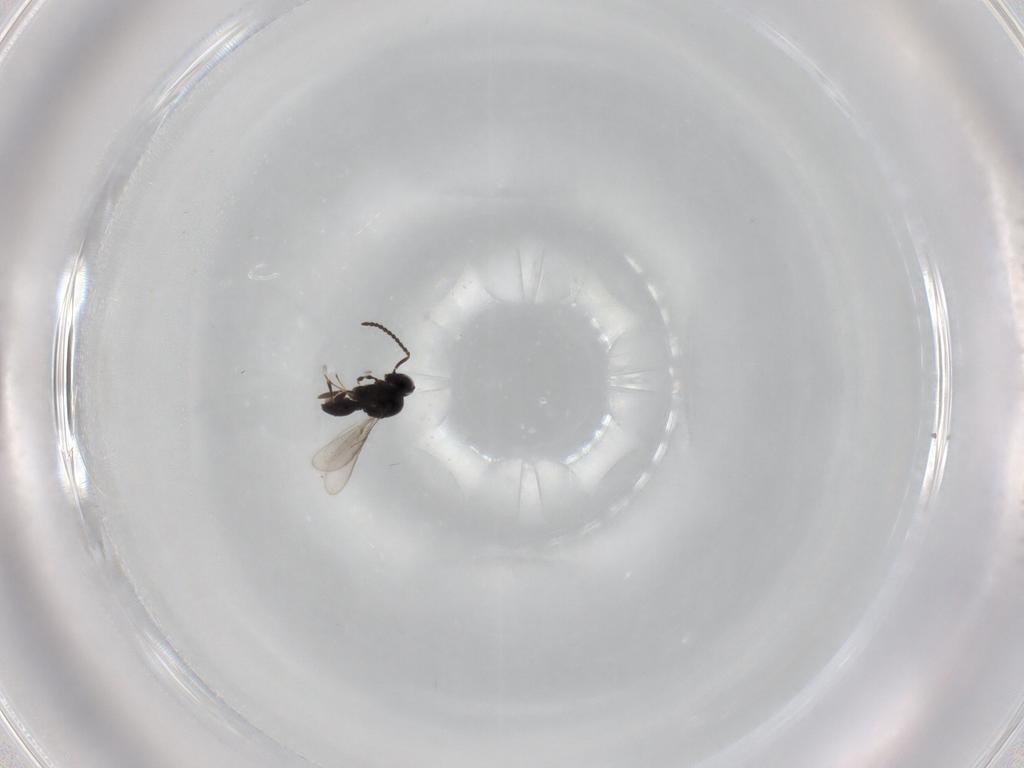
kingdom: Animalia
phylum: Arthropoda
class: Insecta
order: Hymenoptera
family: Scelionidae
